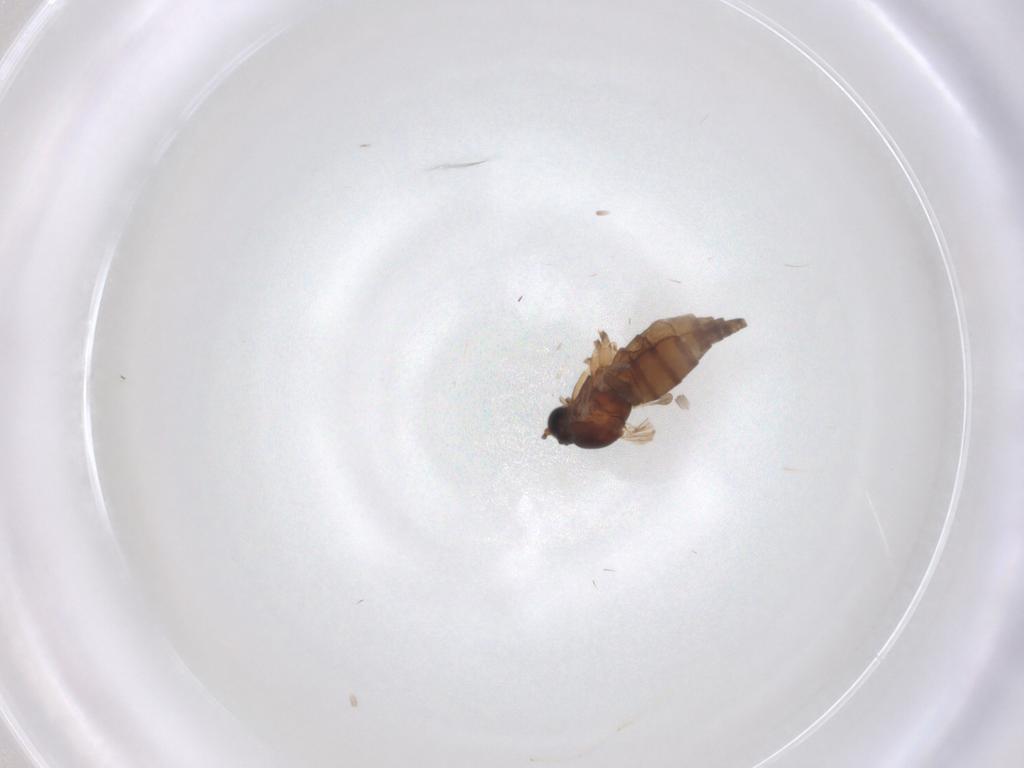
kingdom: Animalia
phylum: Arthropoda
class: Insecta
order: Diptera
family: Sciaridae
